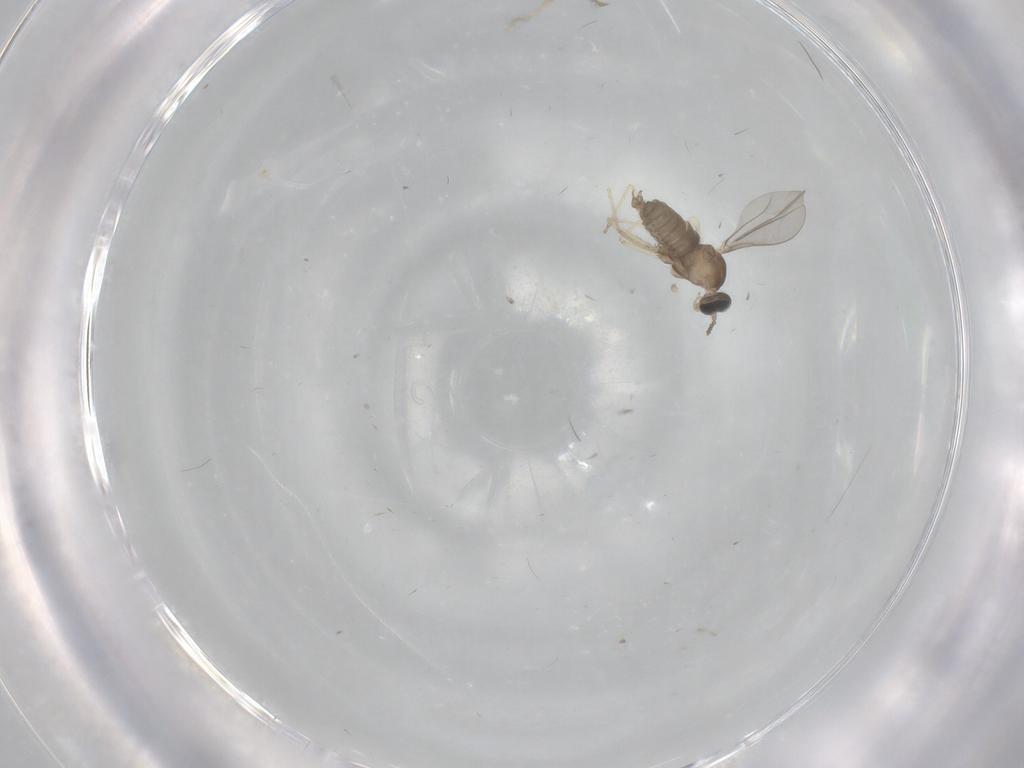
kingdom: Animalia
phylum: Arthropoda
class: Insecta
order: Diptera
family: Cecidomyiidae
